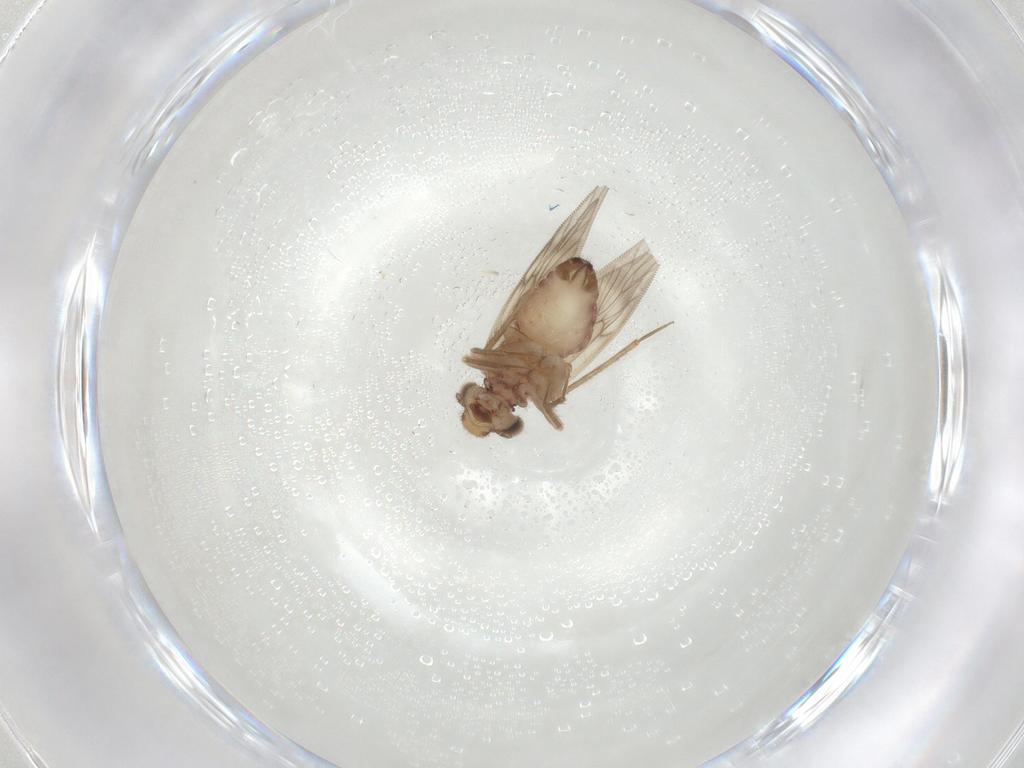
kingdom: Animalia
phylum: Arthropoda
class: Insecta
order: Psocodea
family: Lepidopsocidae
